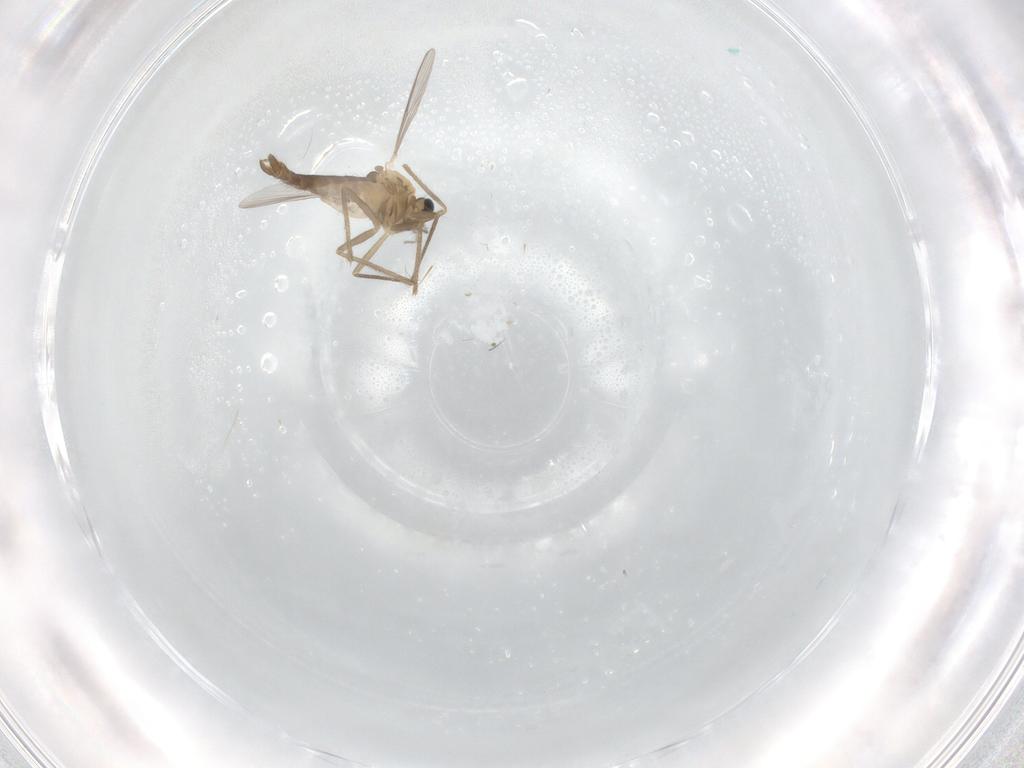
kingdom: Animalia
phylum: Arthropoda
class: Insecta
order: Diptera
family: Chironomidae
